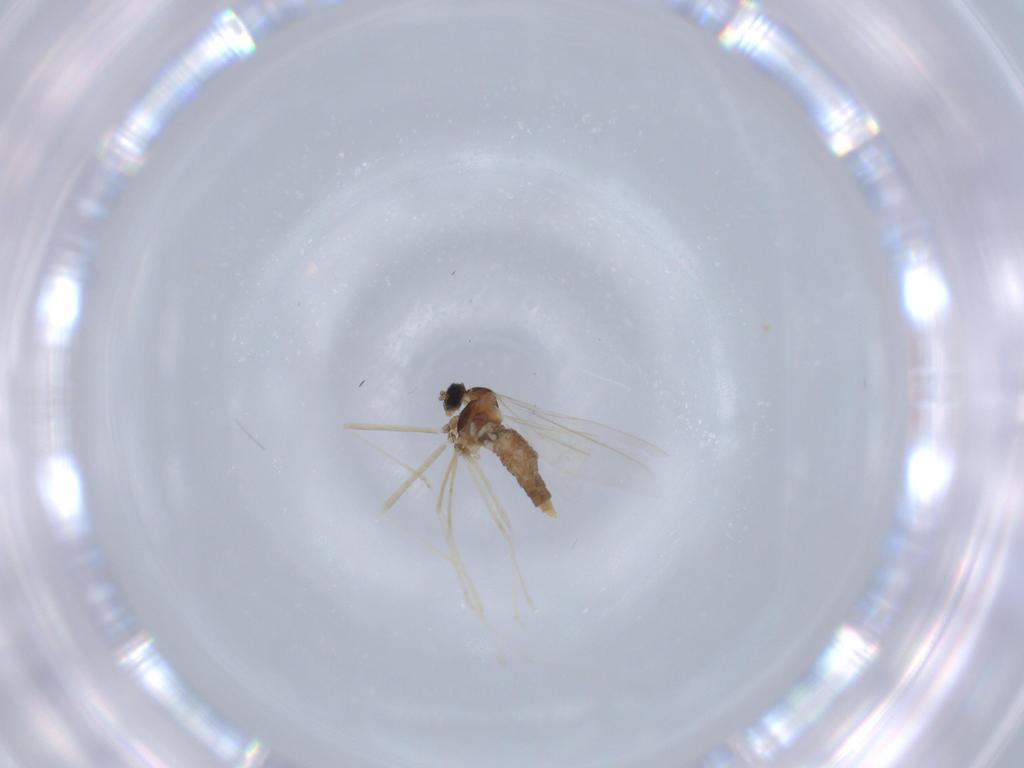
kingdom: Animalia
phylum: Arthropoda
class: Insecta
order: Diptera
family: Cecidomyiidae
